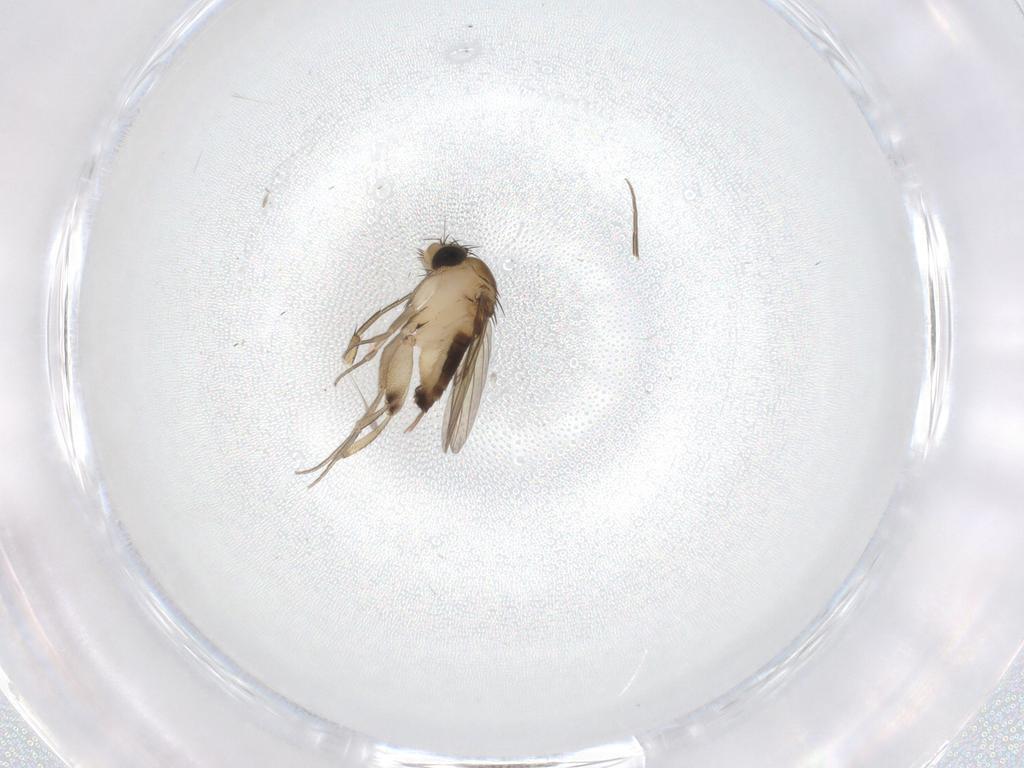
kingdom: Animalia
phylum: Arthropoda
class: Insecta
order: Diptera
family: Phoridae
